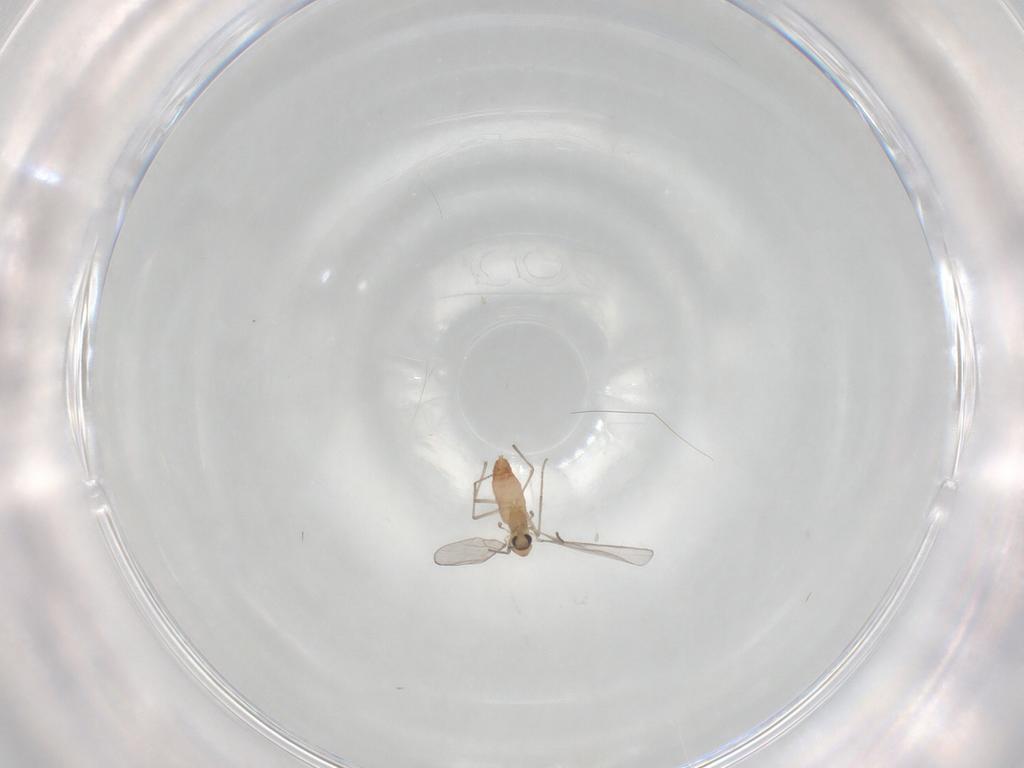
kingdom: Animalia
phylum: Arthropoda
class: Insecta
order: Diptera
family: Chironomidae
